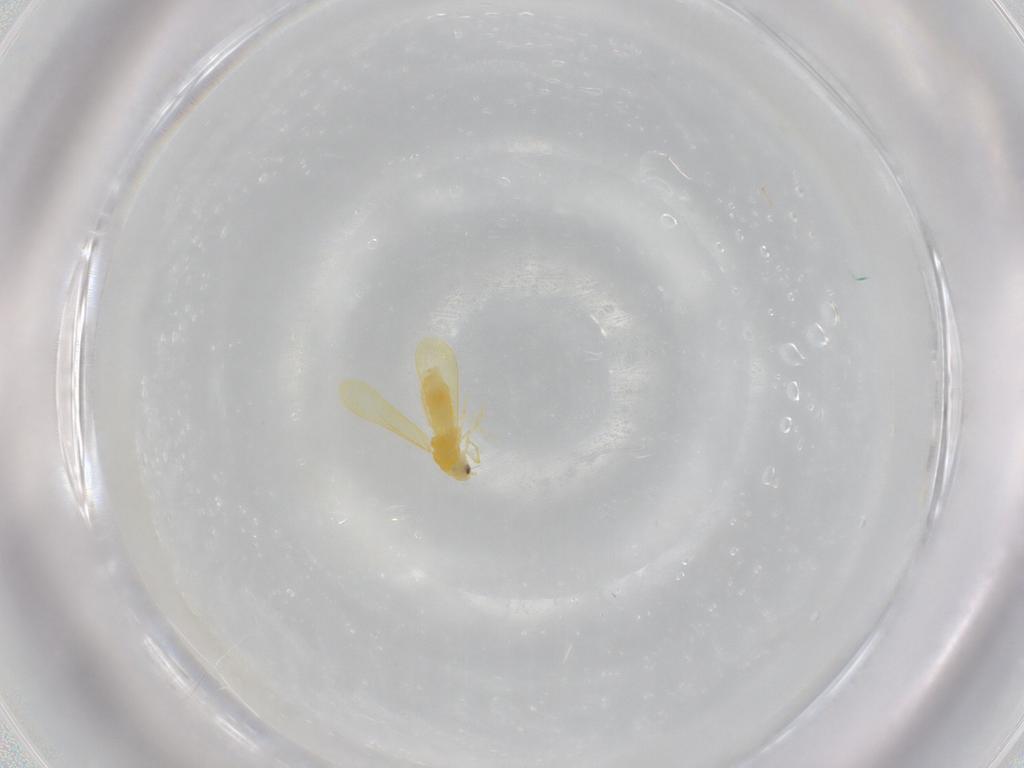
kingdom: Animalia
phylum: Arthropoda
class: Insecta
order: Hemiptera
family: Aleyrodidae
